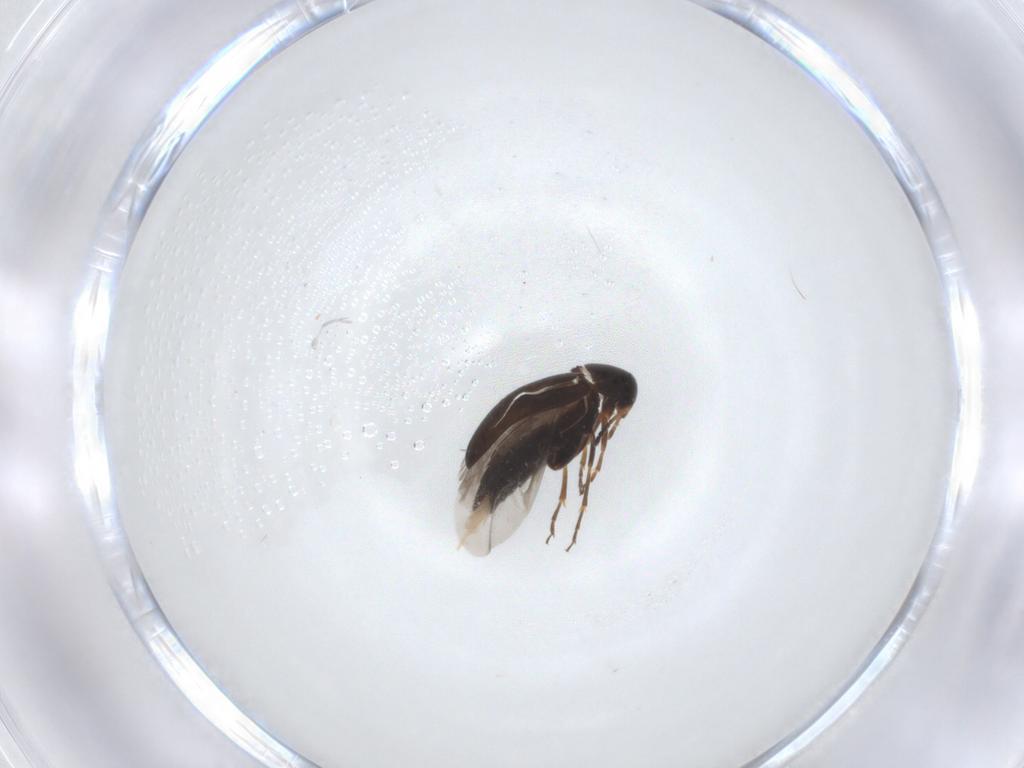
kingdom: Animalia
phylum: Arthropoda
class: Insecta
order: Coleoptera
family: Scraptiidae
